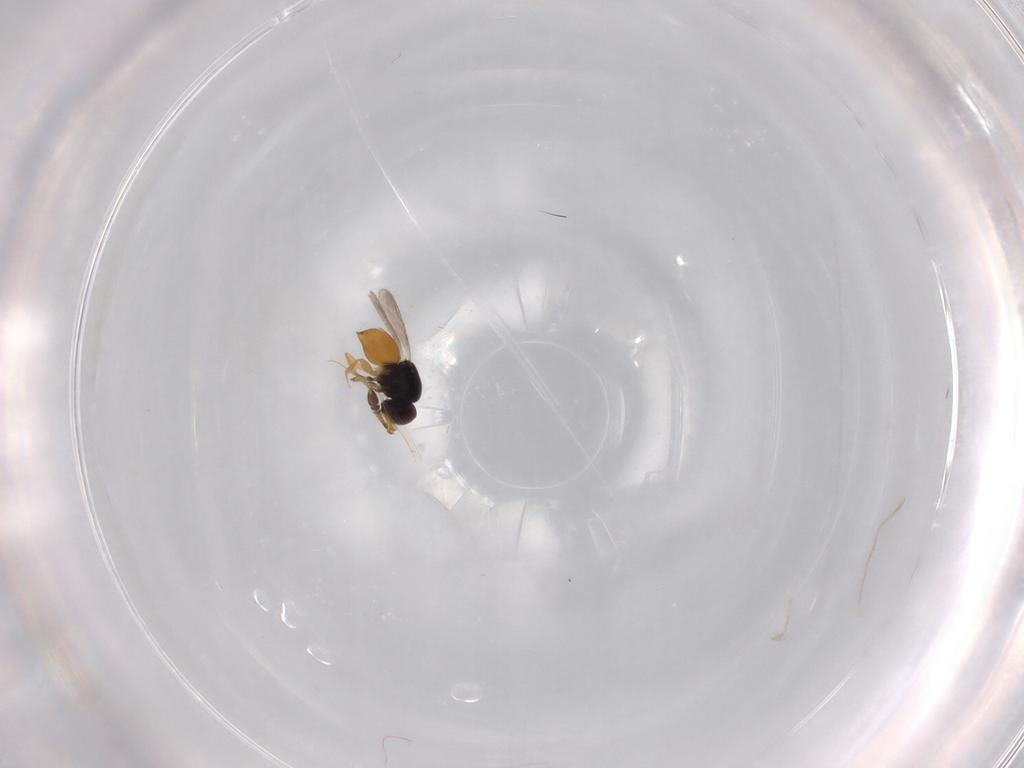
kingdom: Animalia
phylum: Arthropoda
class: Insecta
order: Hymenoptera
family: Diapriidae
